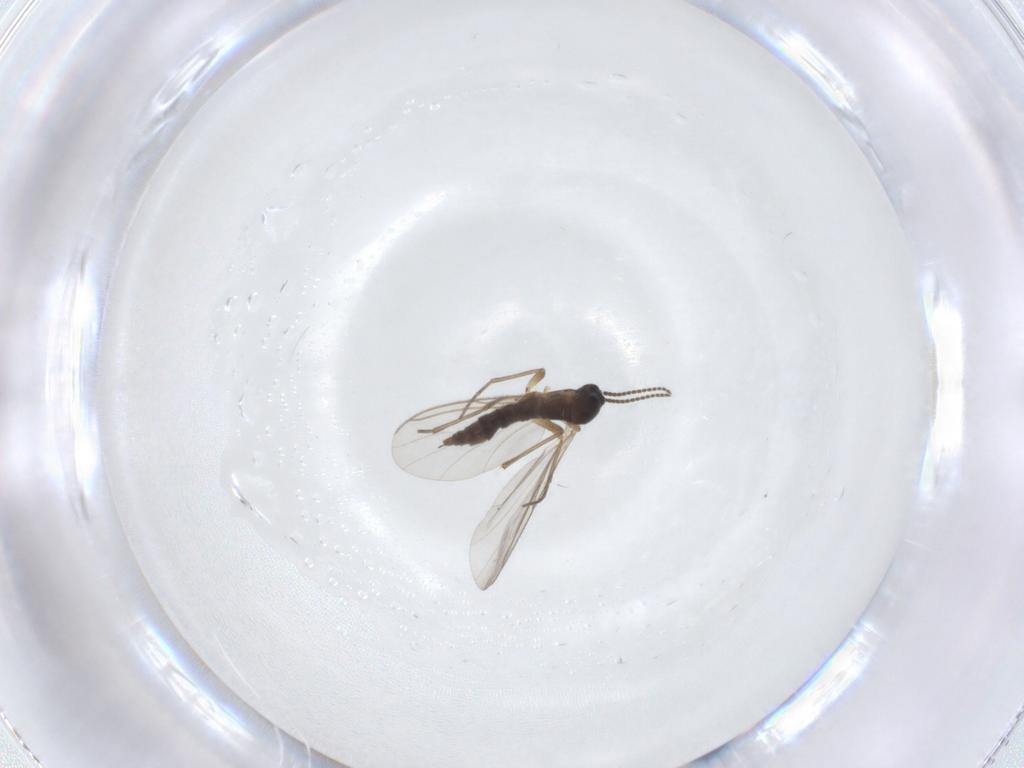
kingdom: Animalia
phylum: Arthropoda
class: Insecta
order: Diptera
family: Sciaridae
